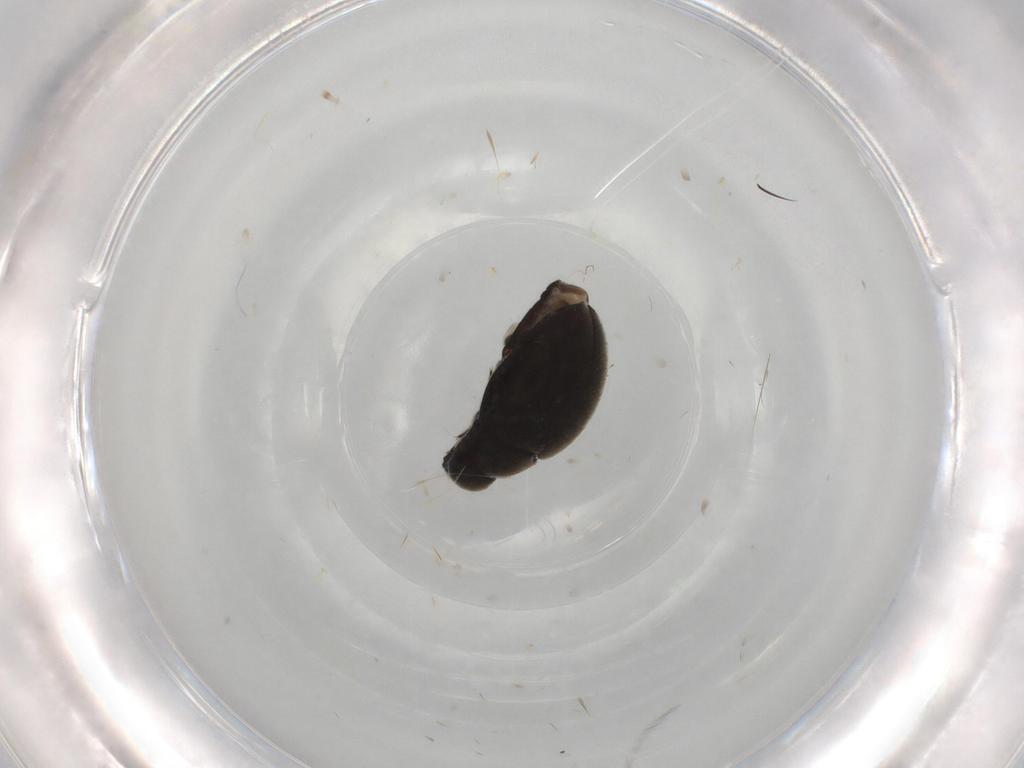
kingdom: Animalia
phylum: Arthropoda
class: Insecta
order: Coleoptera
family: Limnichidae
